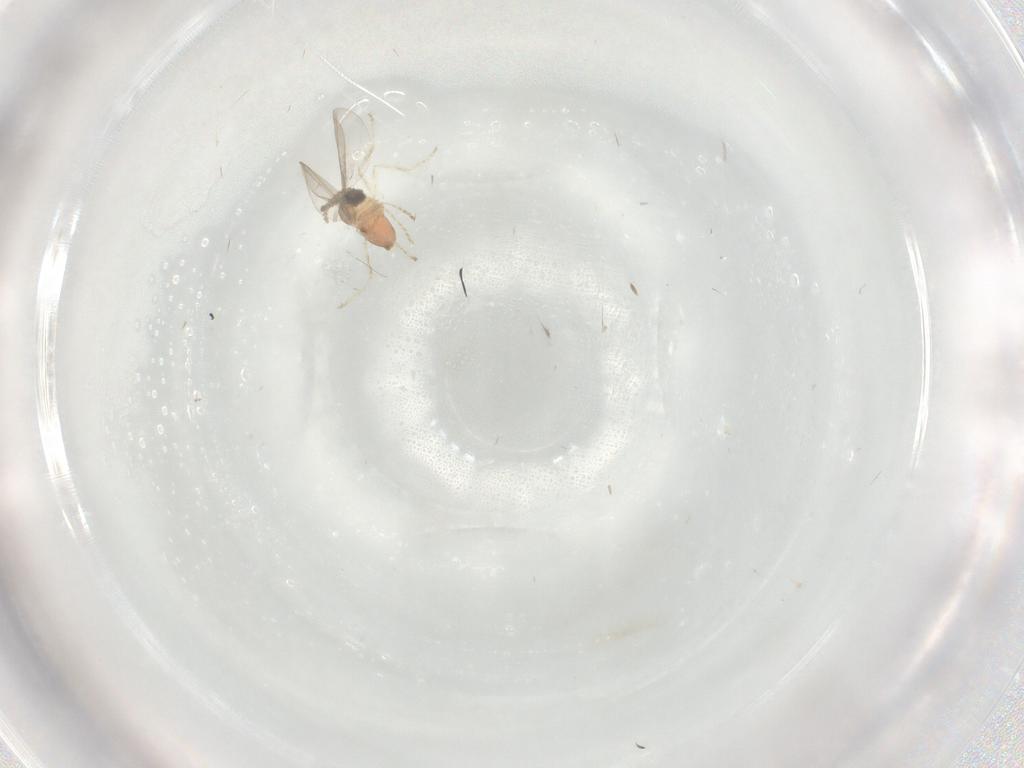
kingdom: Animalia
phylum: Arthropoda
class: Insecta
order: Diptera
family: Cecidomyiidae
